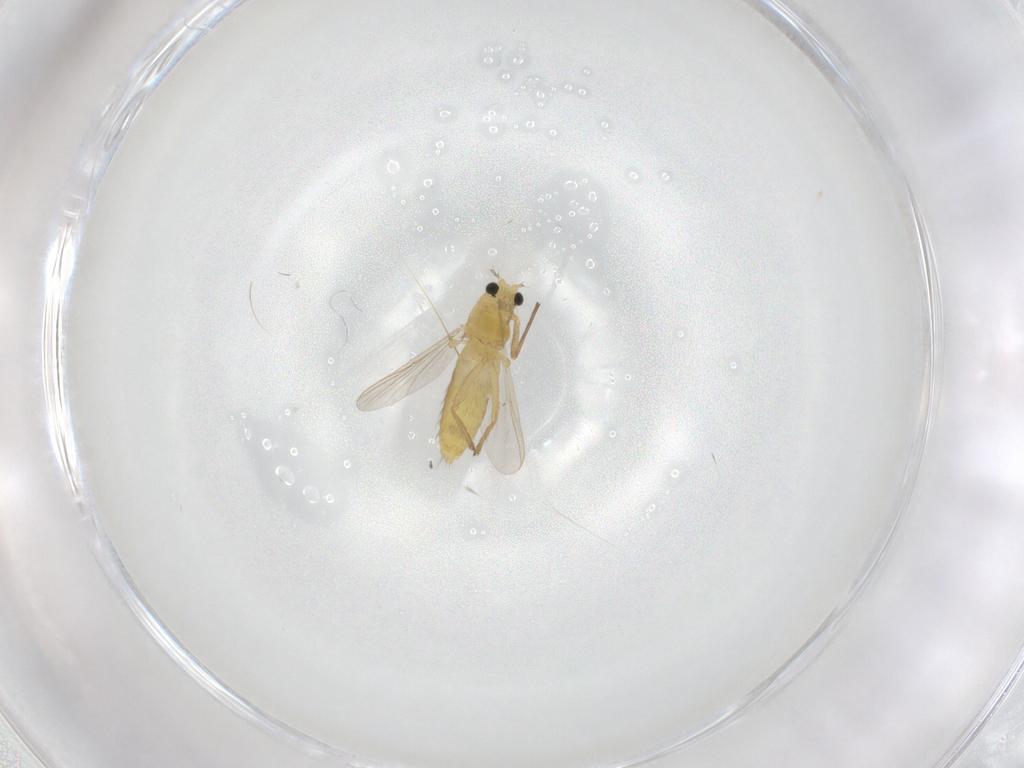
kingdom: Animalia
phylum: Arthropoda
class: Insecta
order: Diptera
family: Chironomidae
